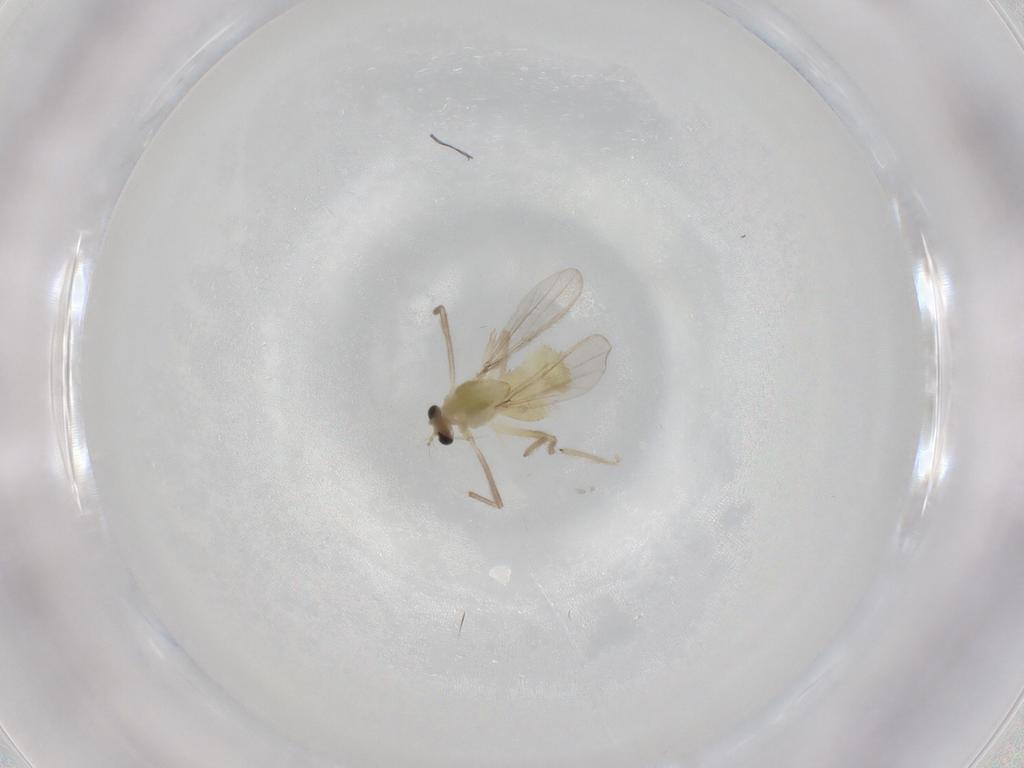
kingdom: Animalia
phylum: Arthropoda
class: Insecta
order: Diptera
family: Chironomidae
